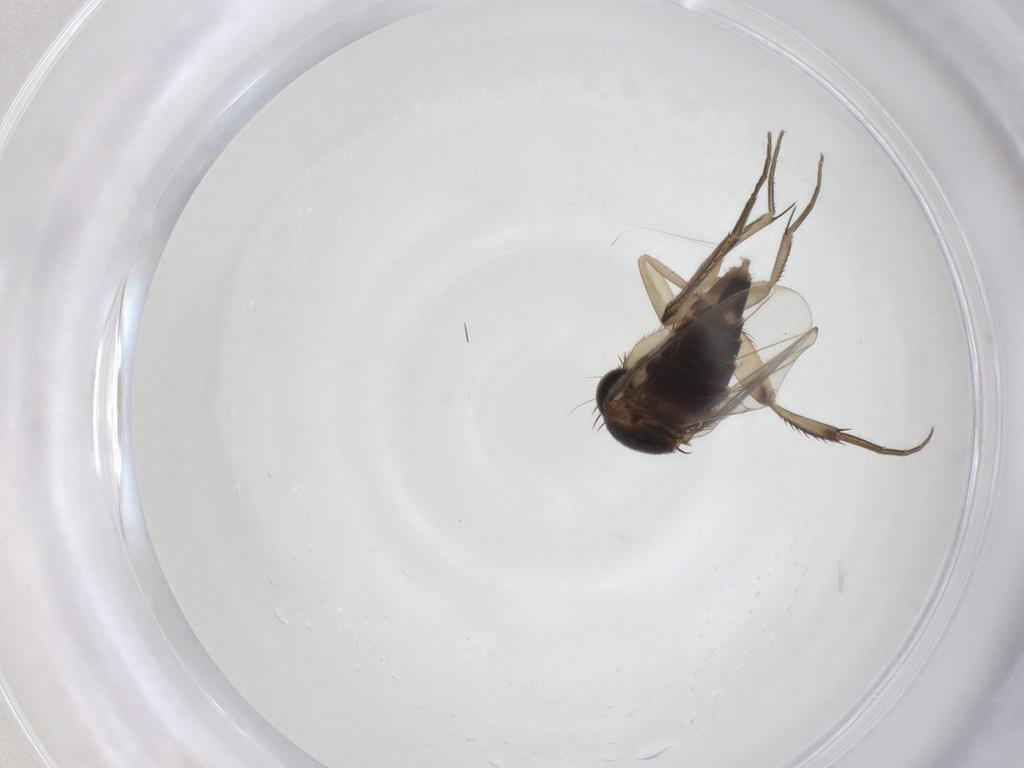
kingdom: Animalia
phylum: Arthropoda
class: Insecta
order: Diptera
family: Phoridae
